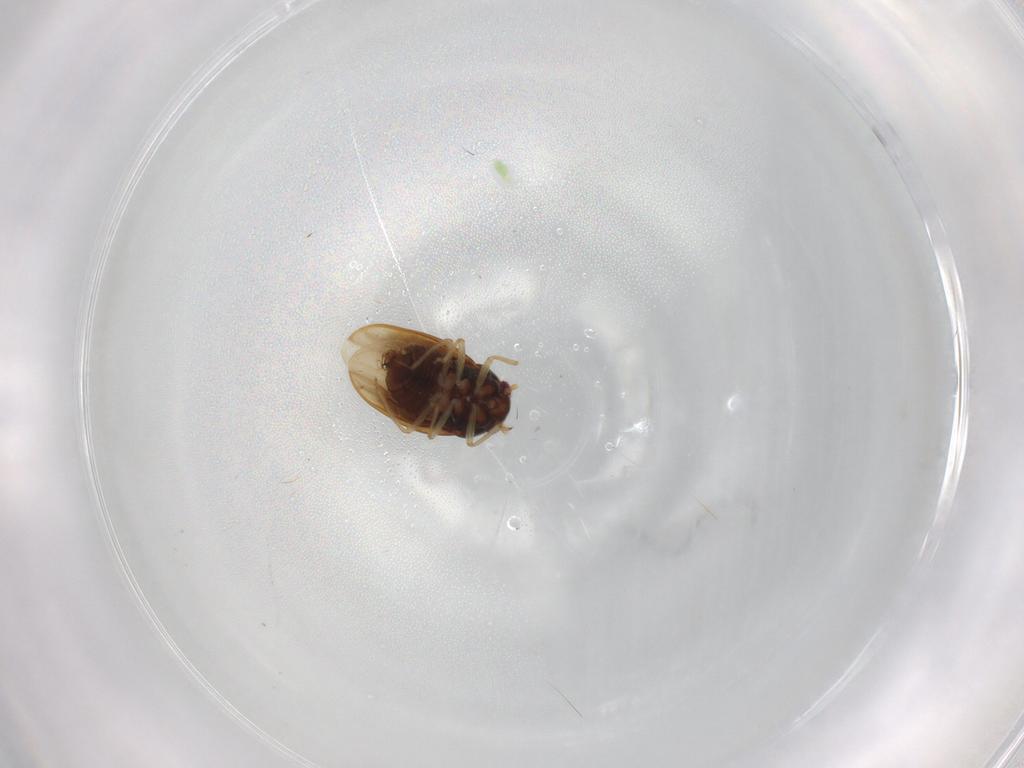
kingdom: Animalia
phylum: Arthropoda
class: Insecta
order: Hemiptera
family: Schizopteridae
